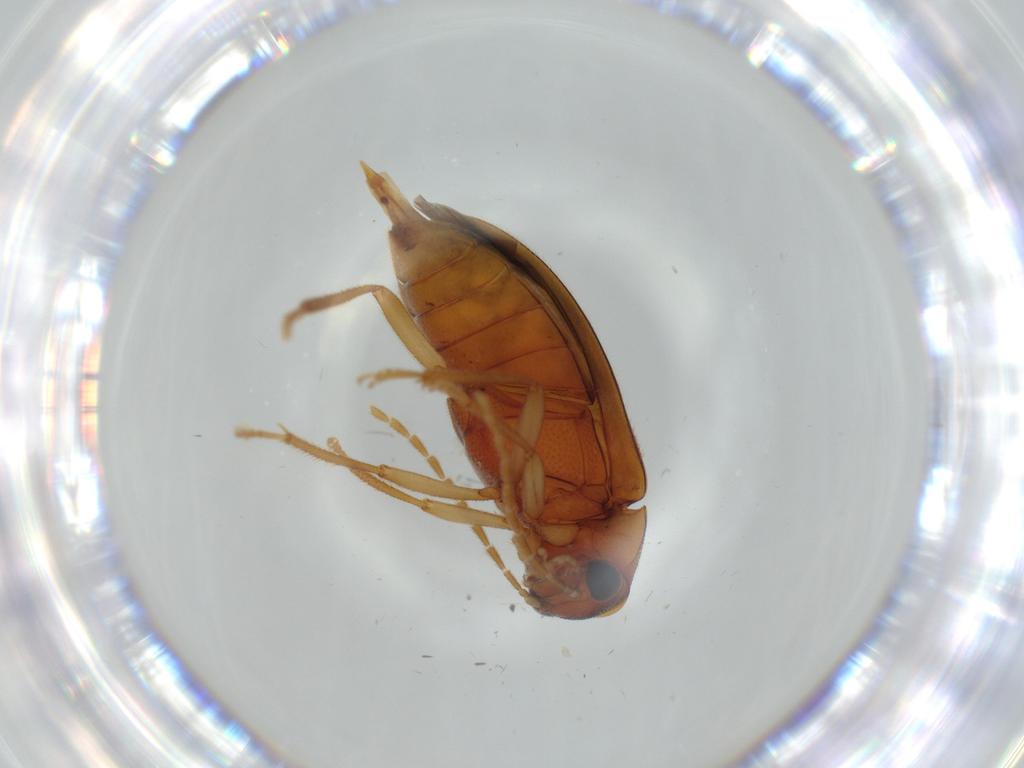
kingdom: Animalia
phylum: Arthropoda
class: Insecta
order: Coleoptera
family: Ptilodactylidae
